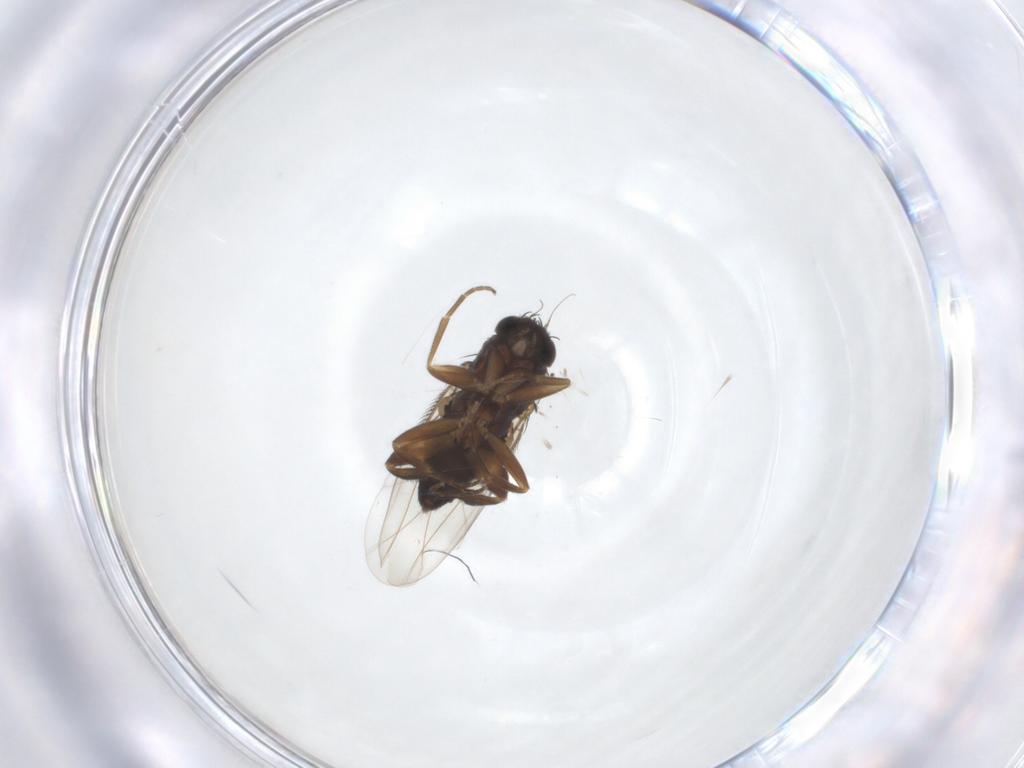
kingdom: Animalia
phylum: Arthropoda
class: Insecta
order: Diptera
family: Phoridae
